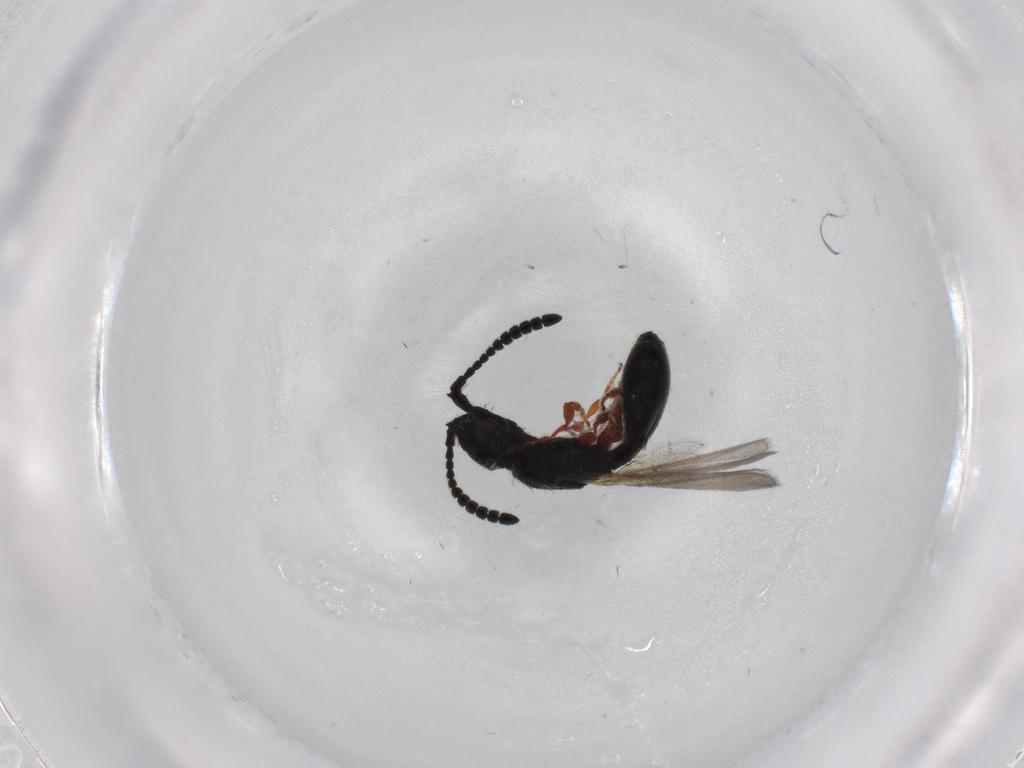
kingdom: Animalia
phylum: Arthropoda
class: Insecta
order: Hymenoptera
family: Diapriidae
